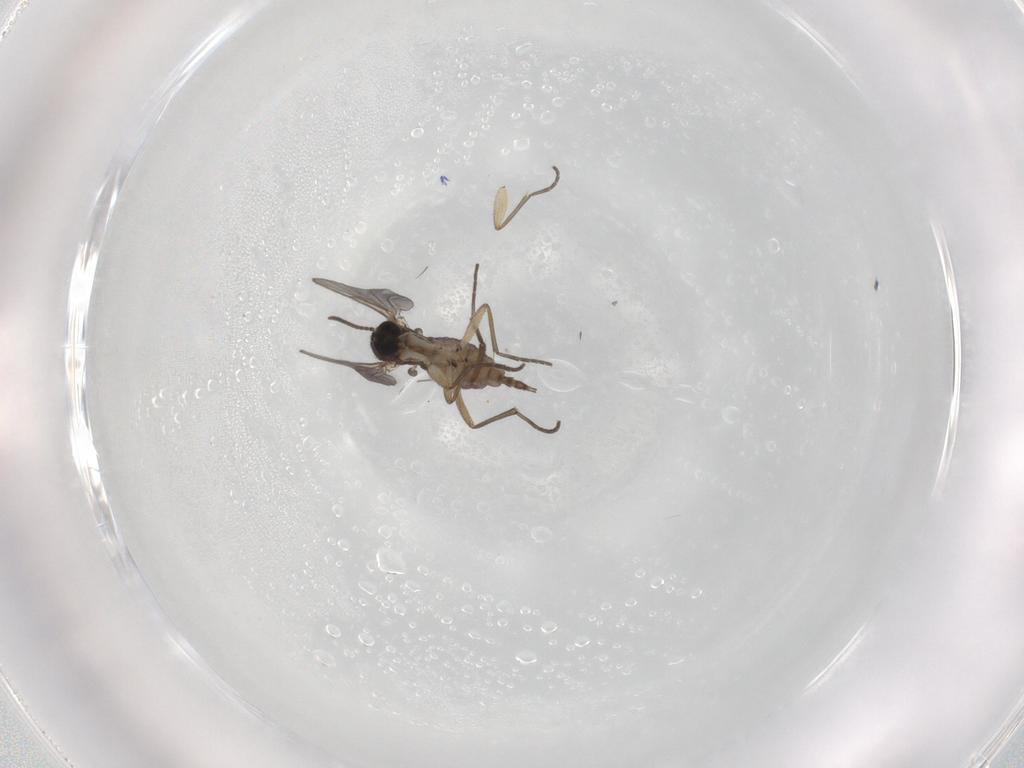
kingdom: Animalia
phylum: Arthropoda
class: Insecta
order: Diptera
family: Sciaridae
